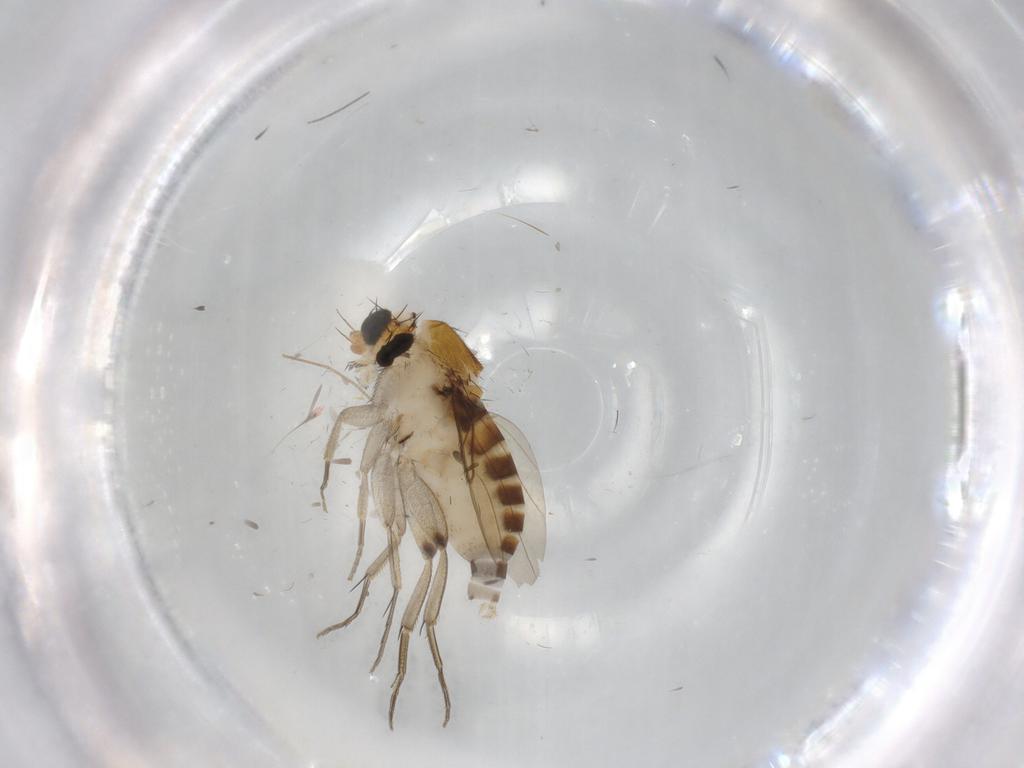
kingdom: Animalia
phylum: Arthropoda
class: Insecta
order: Diptera
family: Phoridae
